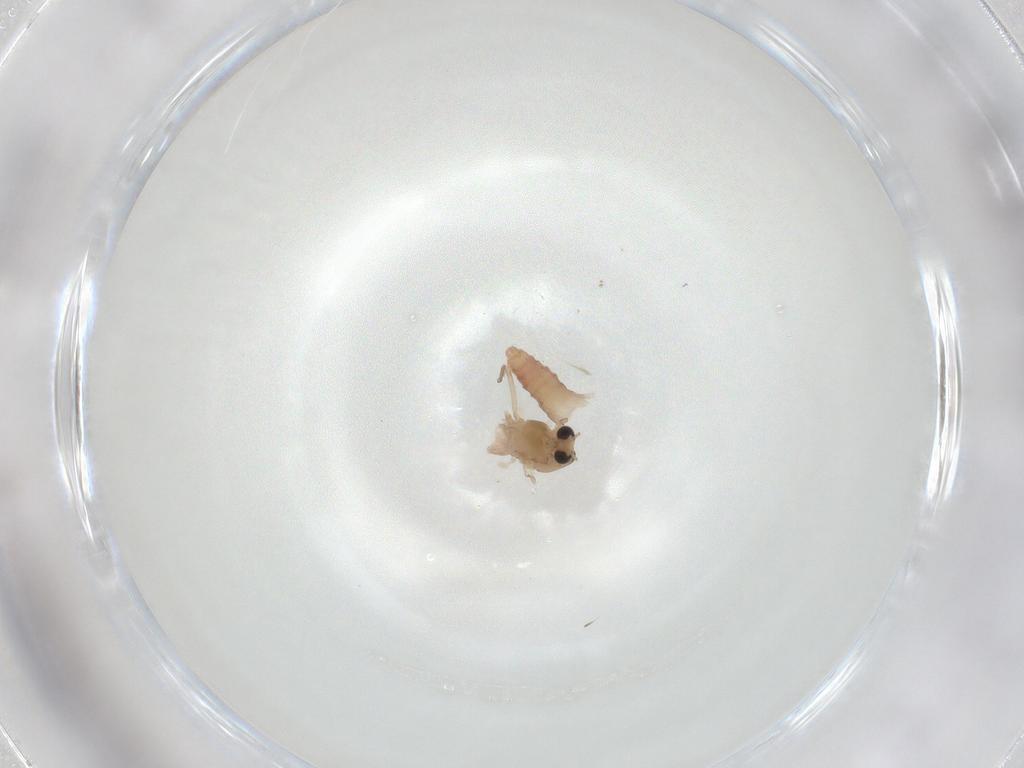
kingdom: Animalia
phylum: Arthropoda
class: Insecta
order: Diptera
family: Chironomidae
